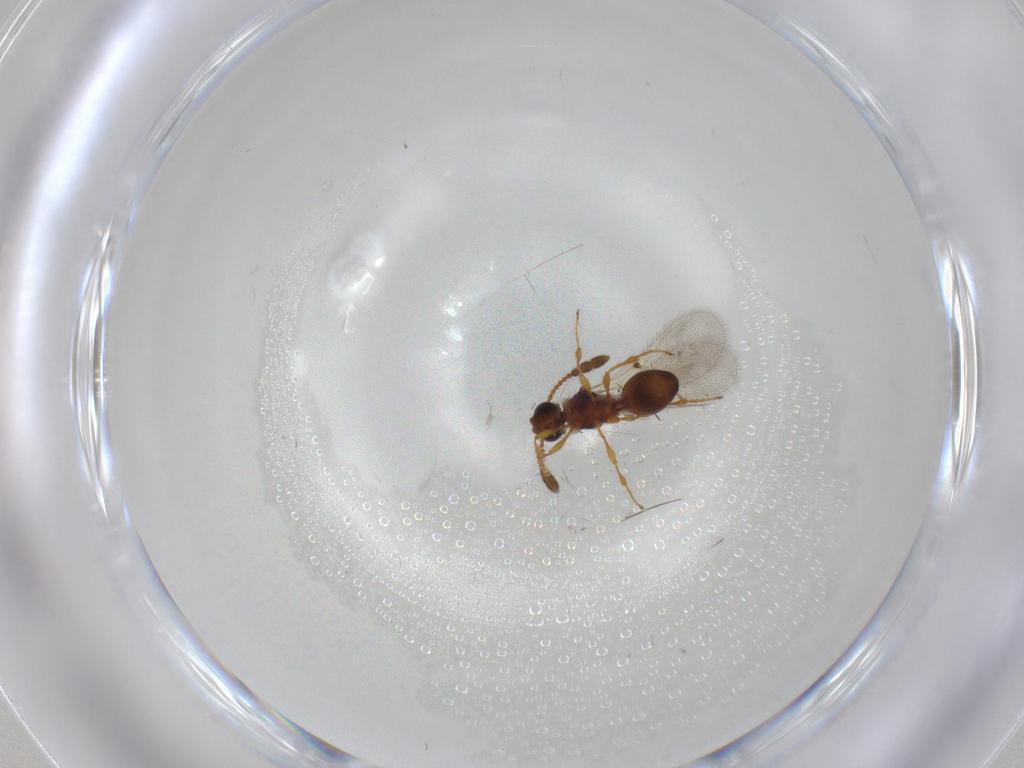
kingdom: Animalia
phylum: Arthropoda
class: Insecta
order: Hymenoptera
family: Diapriidae
